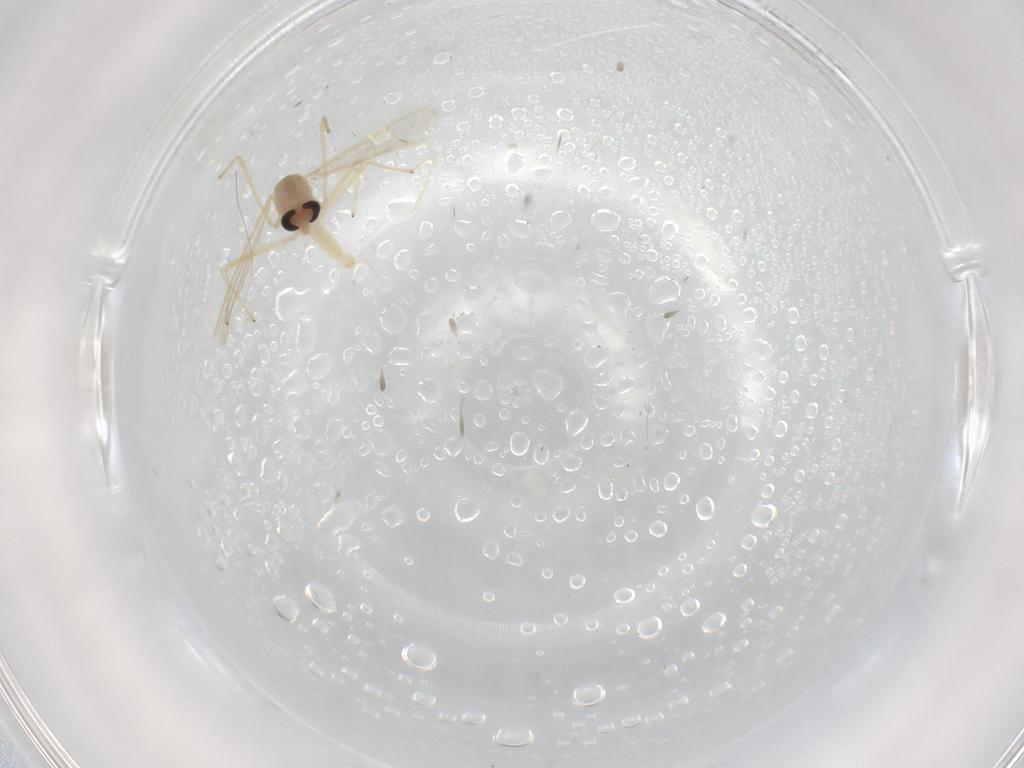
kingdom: Animalia
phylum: Arthropoda
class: Insecta
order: Diptera
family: Chironomidae
